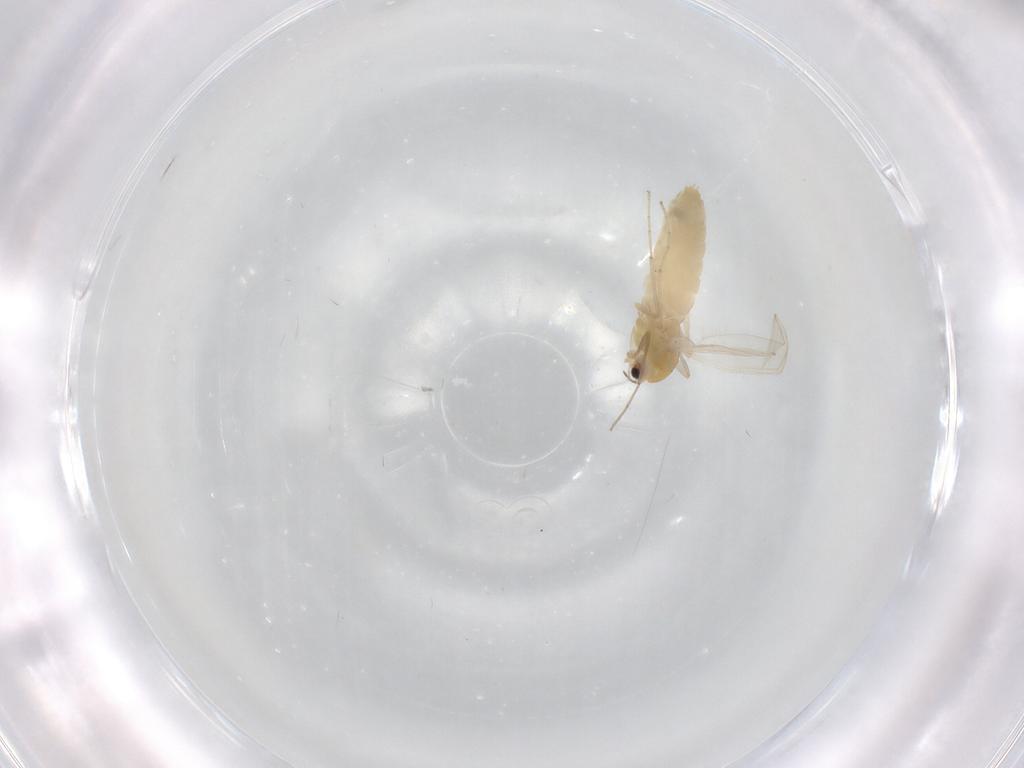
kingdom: Animalia
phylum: Arthropoda
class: Insecta
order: Diptera
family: Chironomidae
